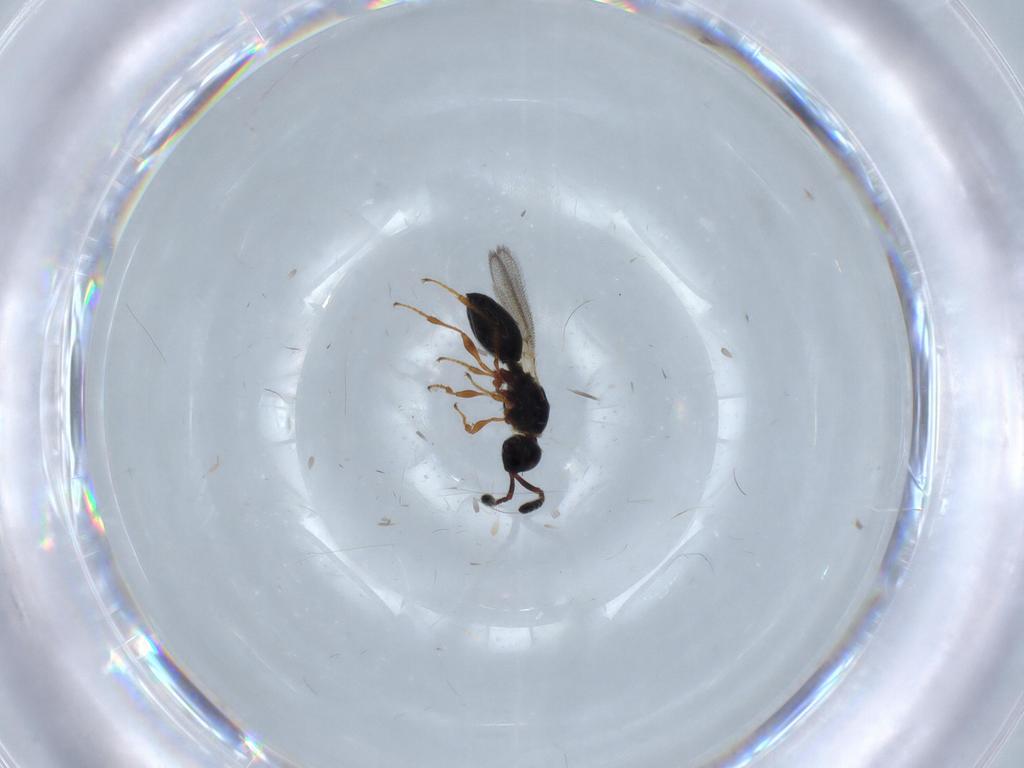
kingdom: Animalia
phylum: Arthropoda
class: Insecta
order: Hymenoptera
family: Diapriidae
